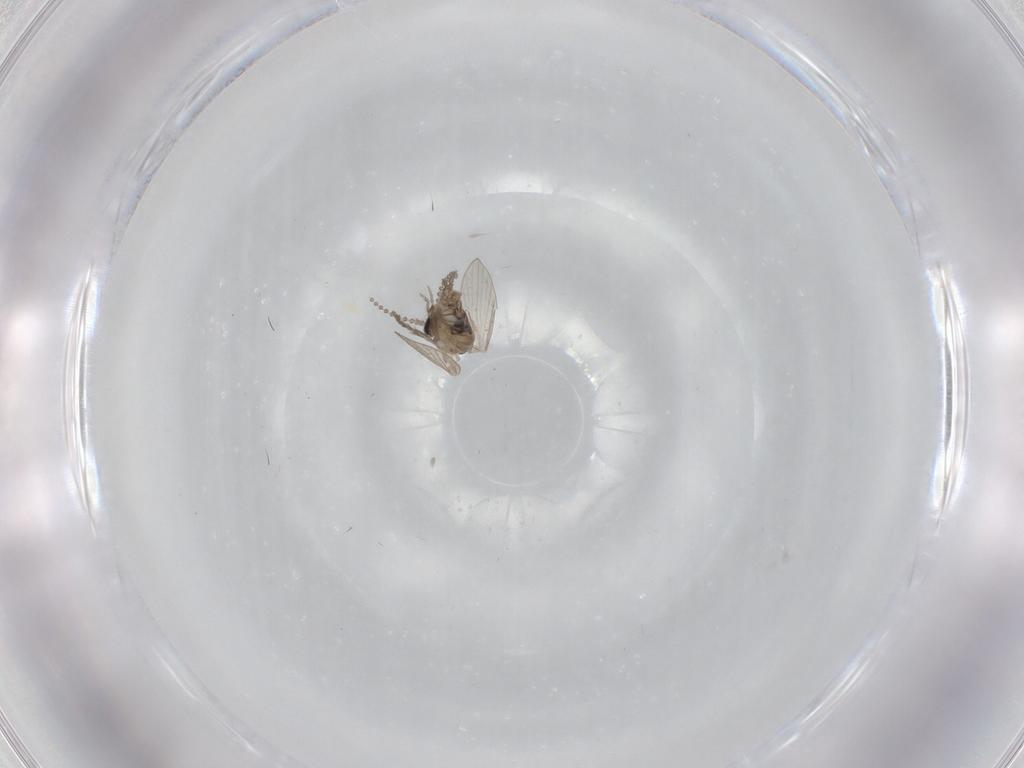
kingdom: Animalia
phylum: Arthropoda
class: Insecta
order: Diptera
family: Psychodidae
